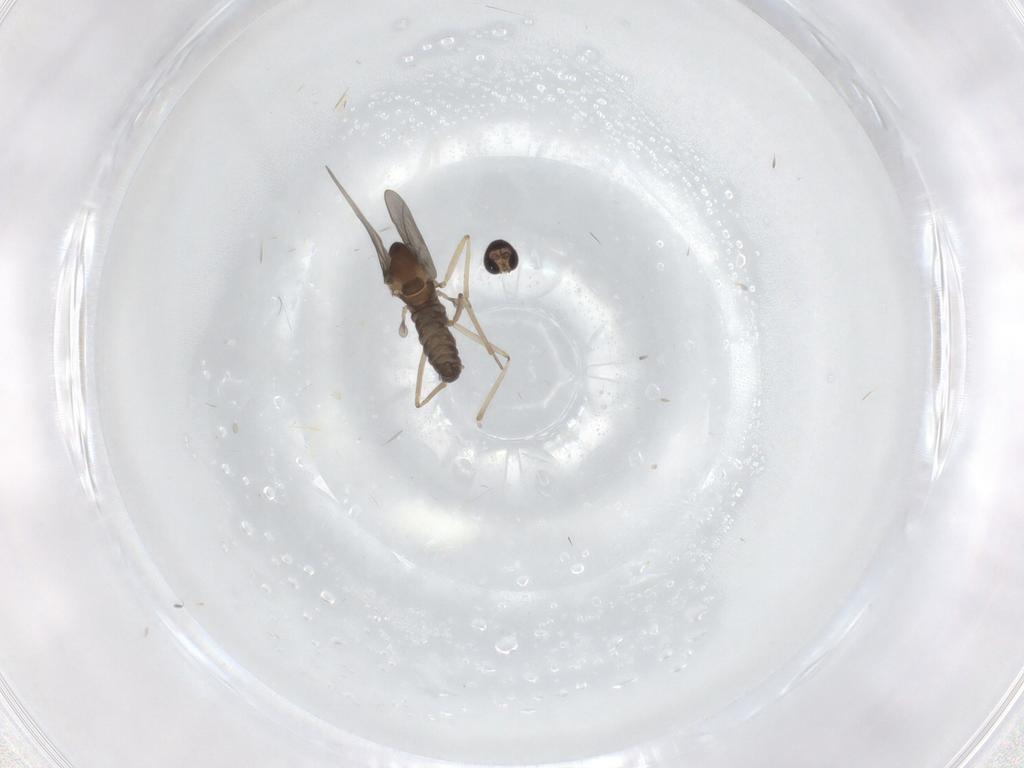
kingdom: Animalia
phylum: Arthropoda
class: Insecta
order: Diptera
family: Cecidomyiidae
